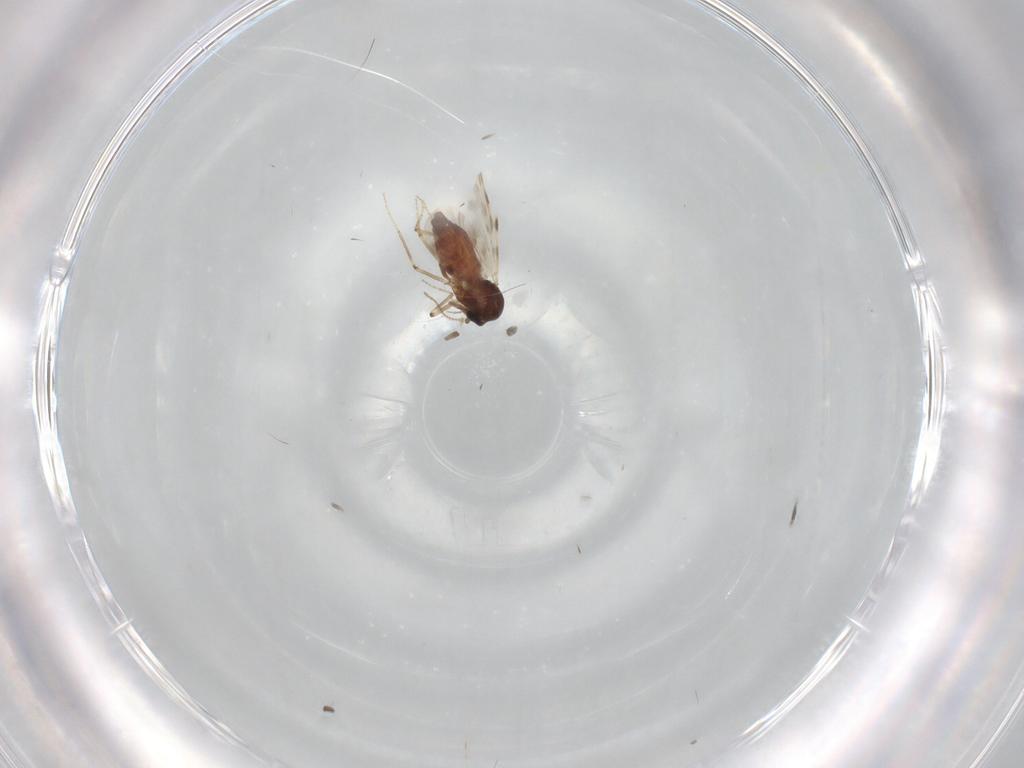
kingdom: Animalia
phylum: Arthropoda
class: Insecta
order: Diptera
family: Ceratopogonidae
